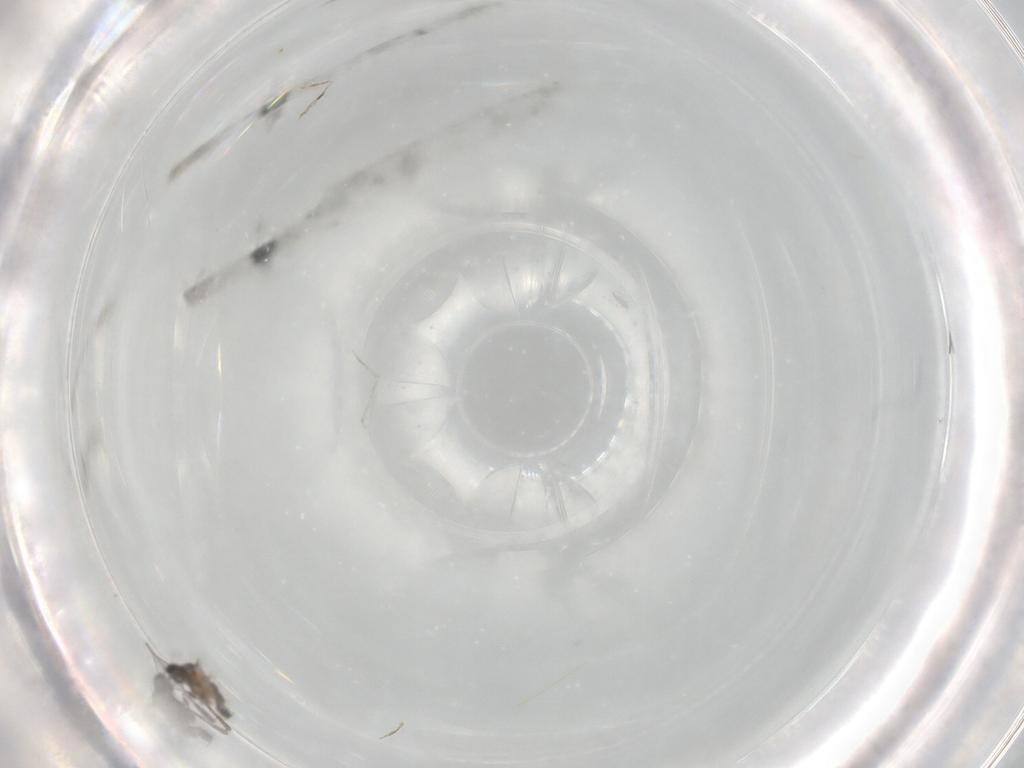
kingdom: Animalia
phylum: Arthropoda
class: Insecta
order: Diptera
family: Cecidomyiidae
